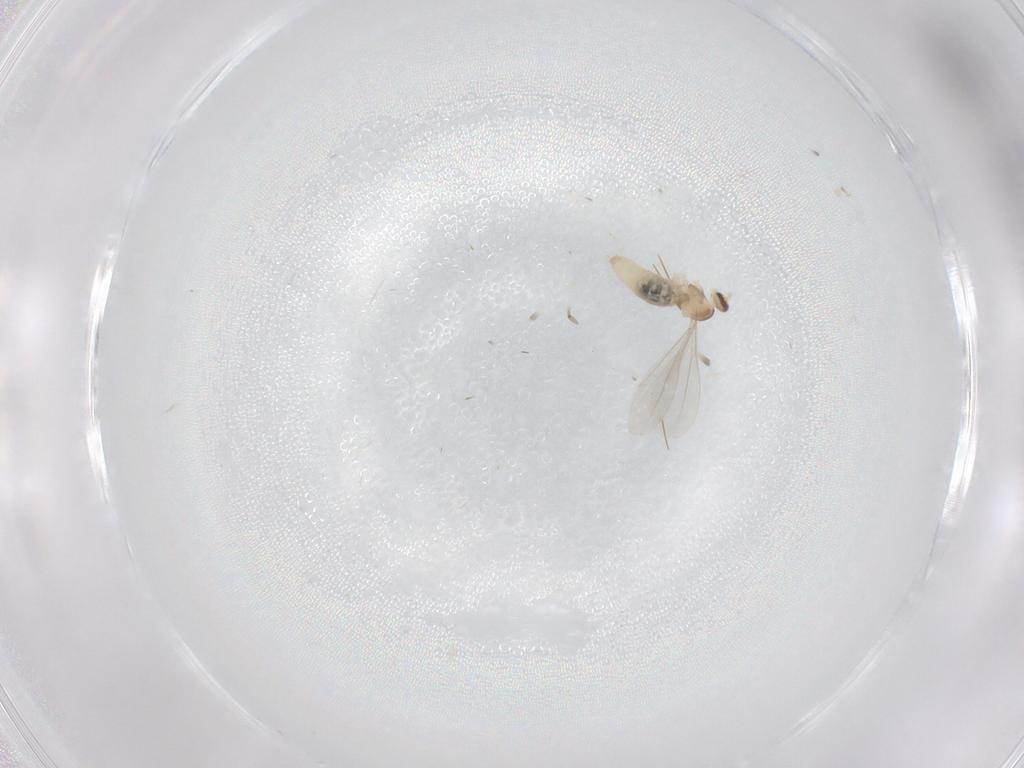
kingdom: Animalia
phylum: Arthropoda
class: Insecta
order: Diptera
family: Cecidomyiidae
